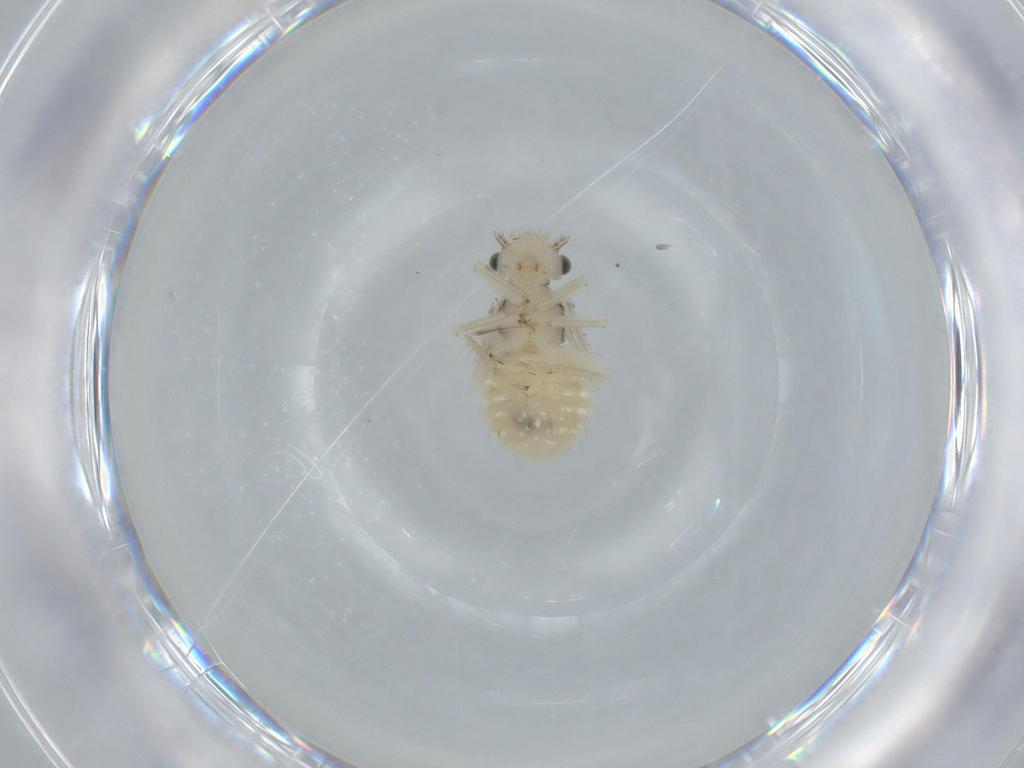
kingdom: Animalia
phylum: Arthropoda
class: Insecta
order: Psocodea
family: Pseudocaeciliidae
